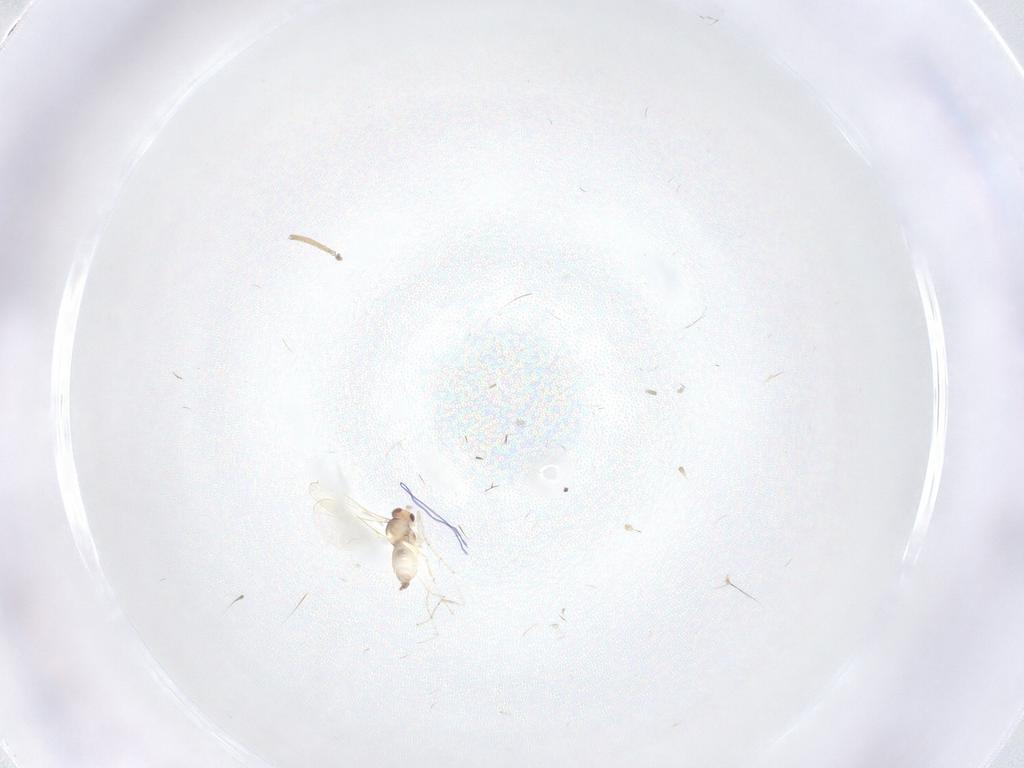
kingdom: Animalia
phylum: Arthropoda
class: Insecta
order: Diptera
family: Cecidomyiidae
